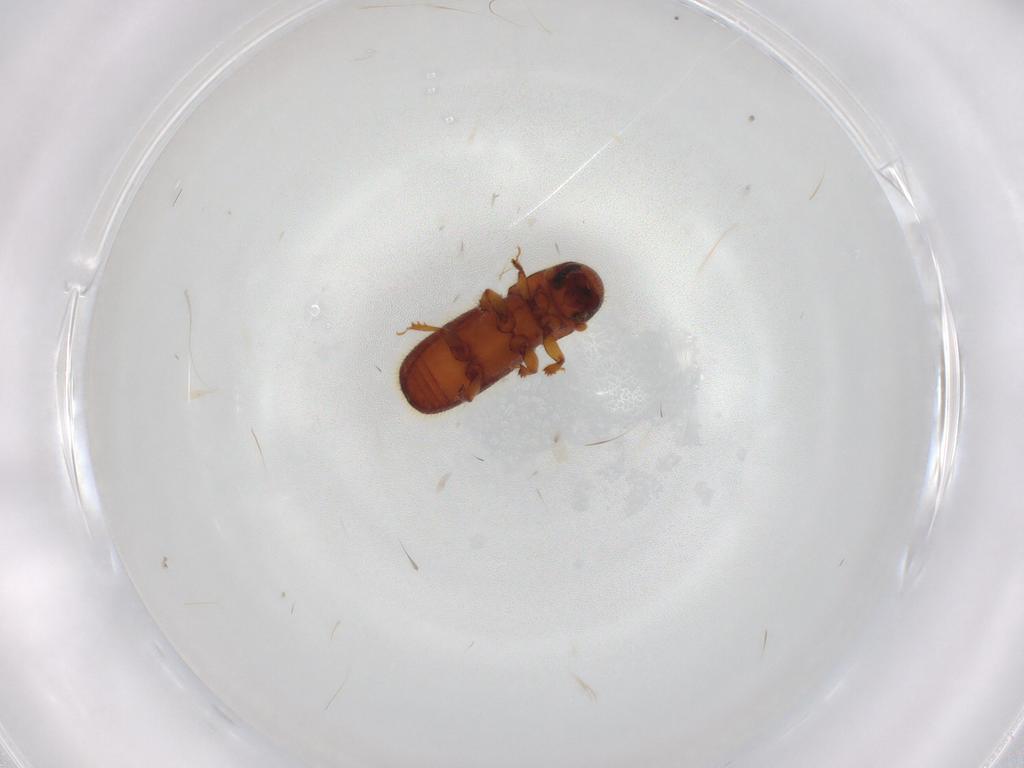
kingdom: Animalia
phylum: Arthropoda
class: Insecta
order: Coleoptera
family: Curculionidae
